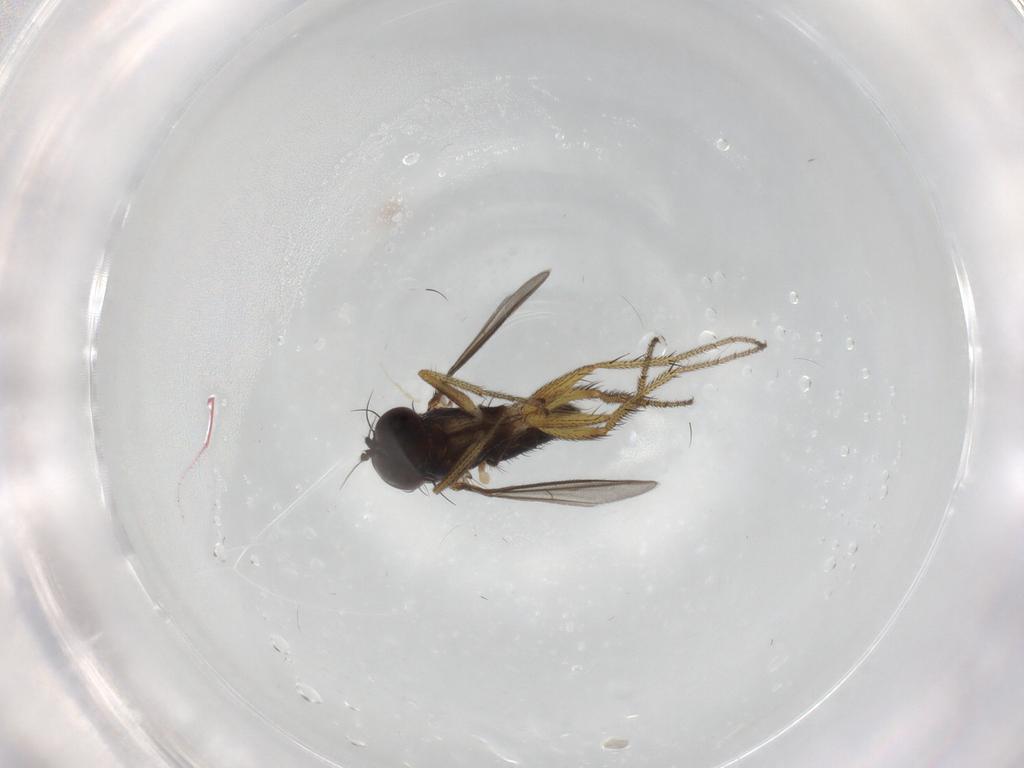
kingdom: Animalia
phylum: Arthropoda
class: Insecta
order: Diptera
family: Dolichopodidae
